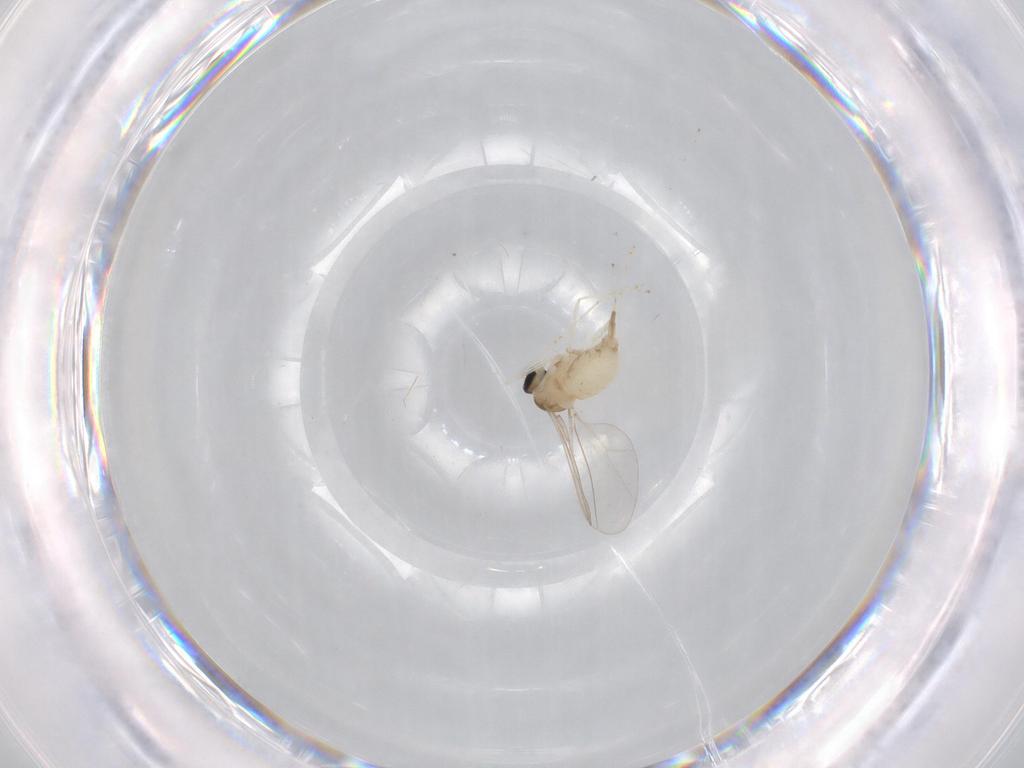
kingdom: Animalia
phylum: Arthropoda
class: Insecta
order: Diptera
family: Cecidomyiidae
